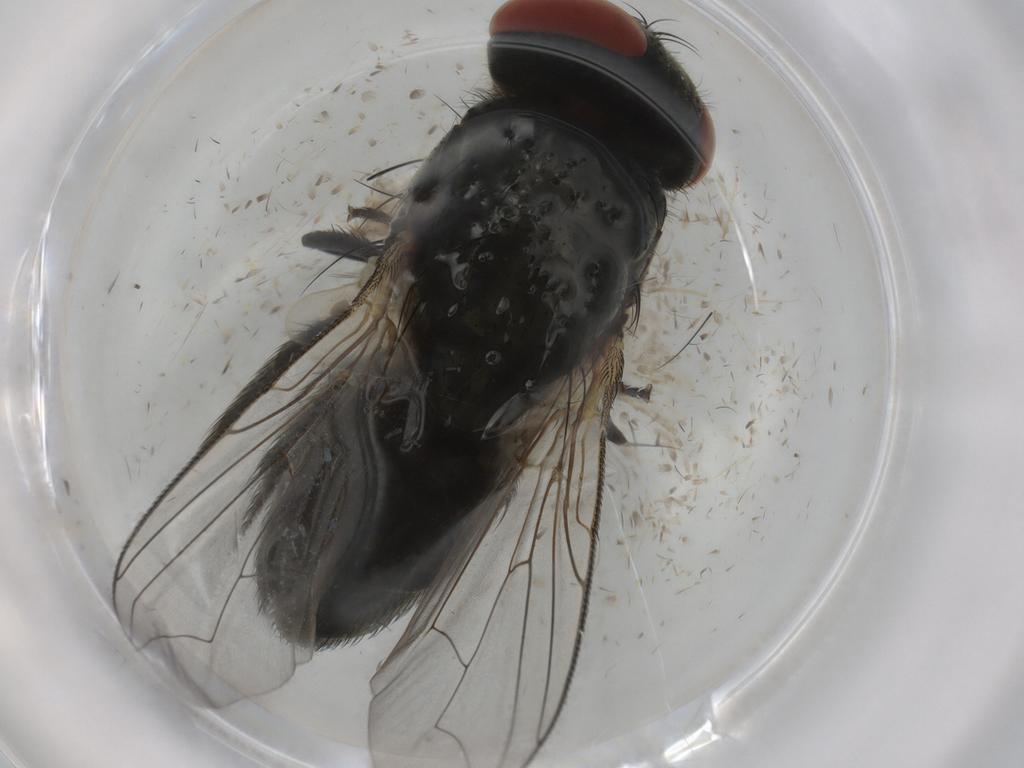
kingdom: Animalia
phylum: Arthropoda
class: Insecta
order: Diptera
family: Sarcophagidae
